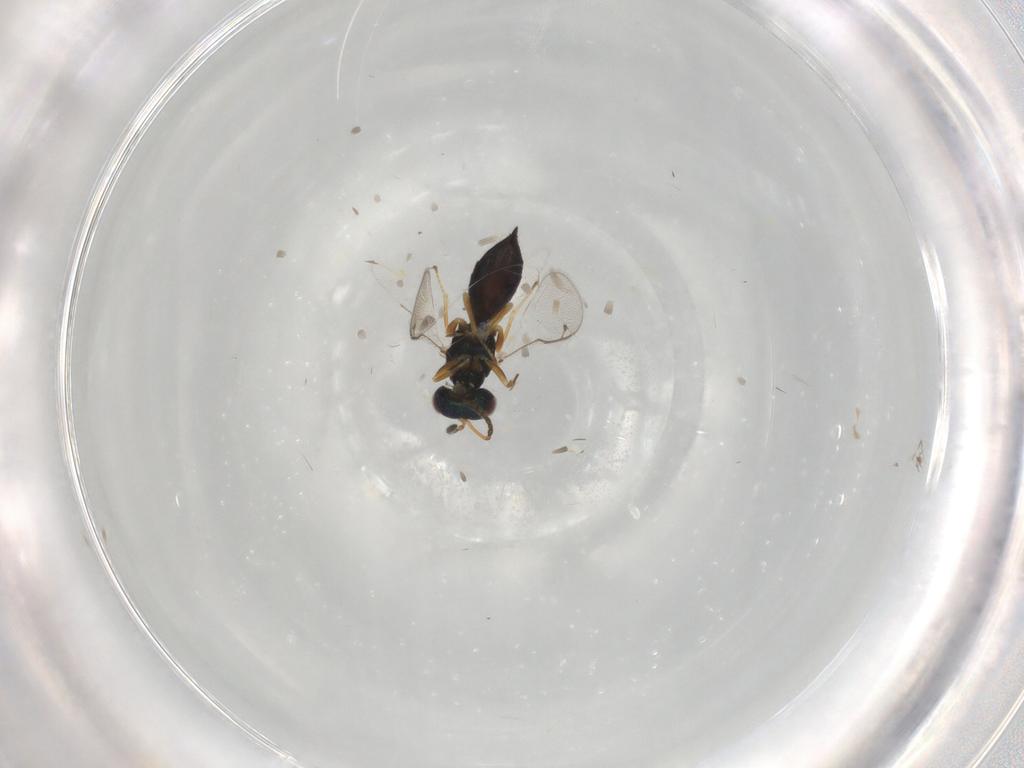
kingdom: Animalia
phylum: Arthropoda
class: Insecta
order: Hymenoptera
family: Pteromalidae
